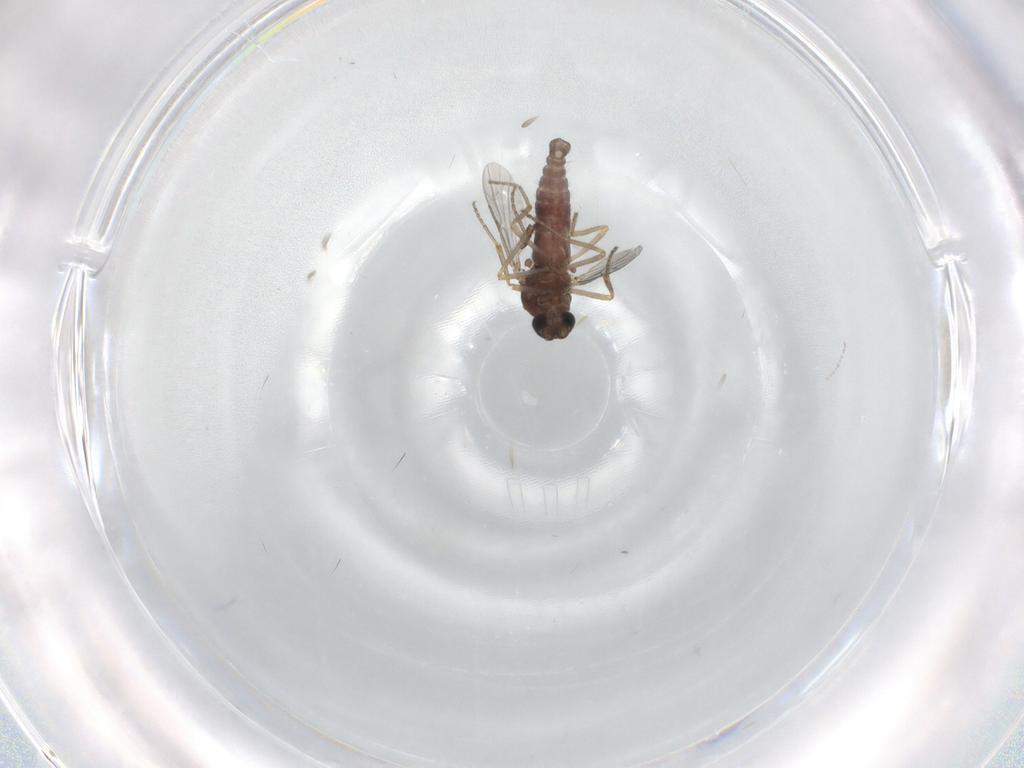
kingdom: Animalia
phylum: Arthropoda
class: Insecta
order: Diptera
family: Ceratopogonidae
